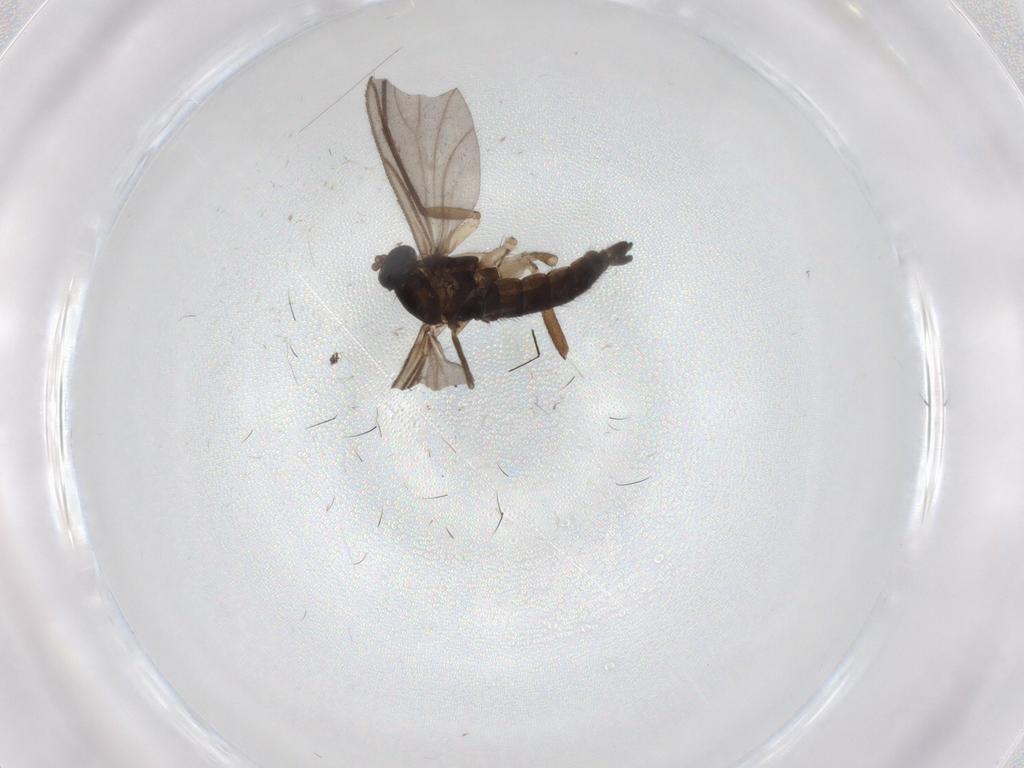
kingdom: Animalia
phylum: Arthropoda
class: Insecta
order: Diptera
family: Sciaridae
